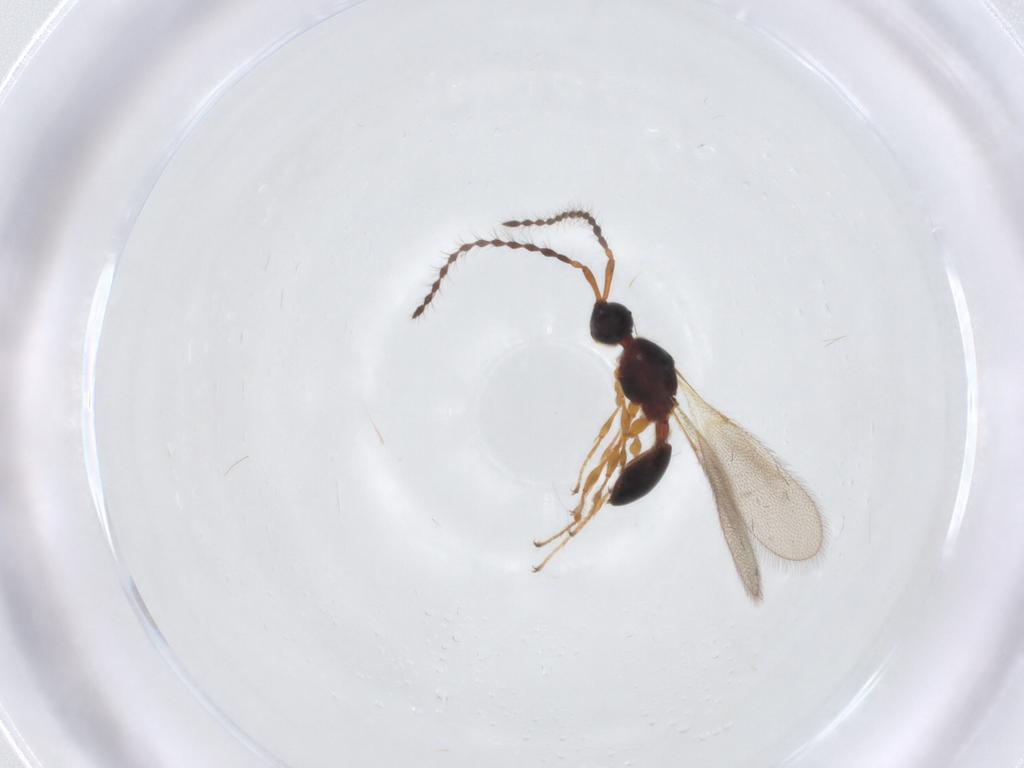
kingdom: Animalia
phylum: Arthropoda
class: Insecta
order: Hymenoptera
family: Diapriidae
